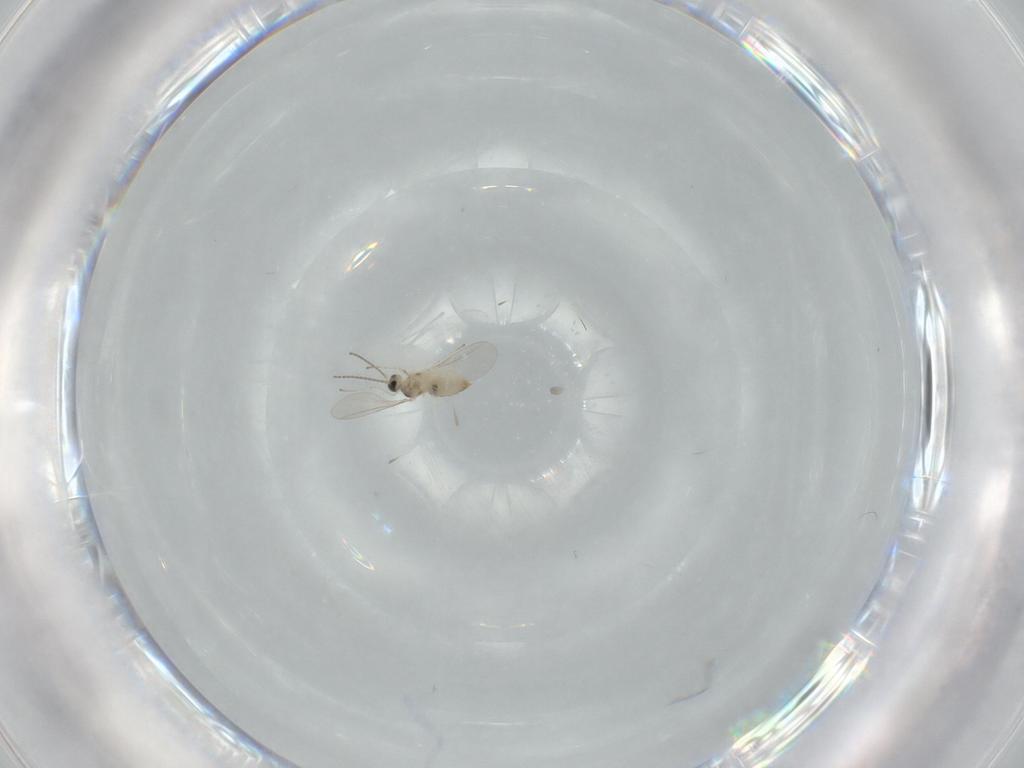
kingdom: Animalia
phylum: Arthropoda
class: Insecta
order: Diptera
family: Cecidomyiidae
